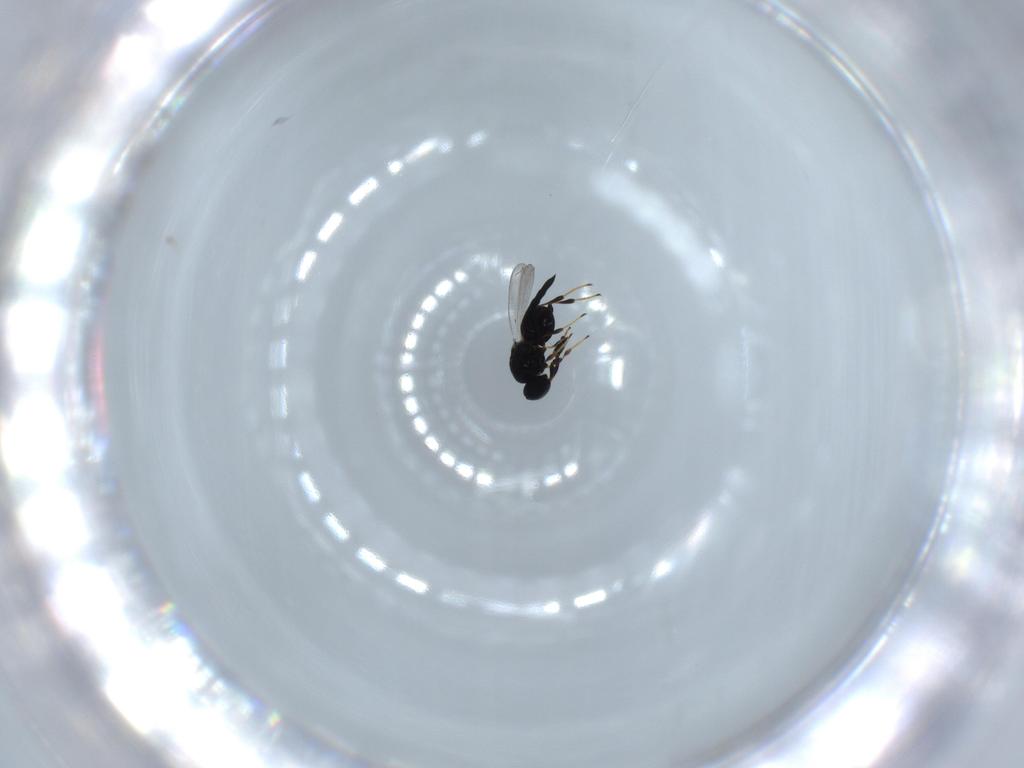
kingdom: Animalia
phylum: Arthropoda
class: Insecta
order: Hymenoptera
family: Platygastridae
